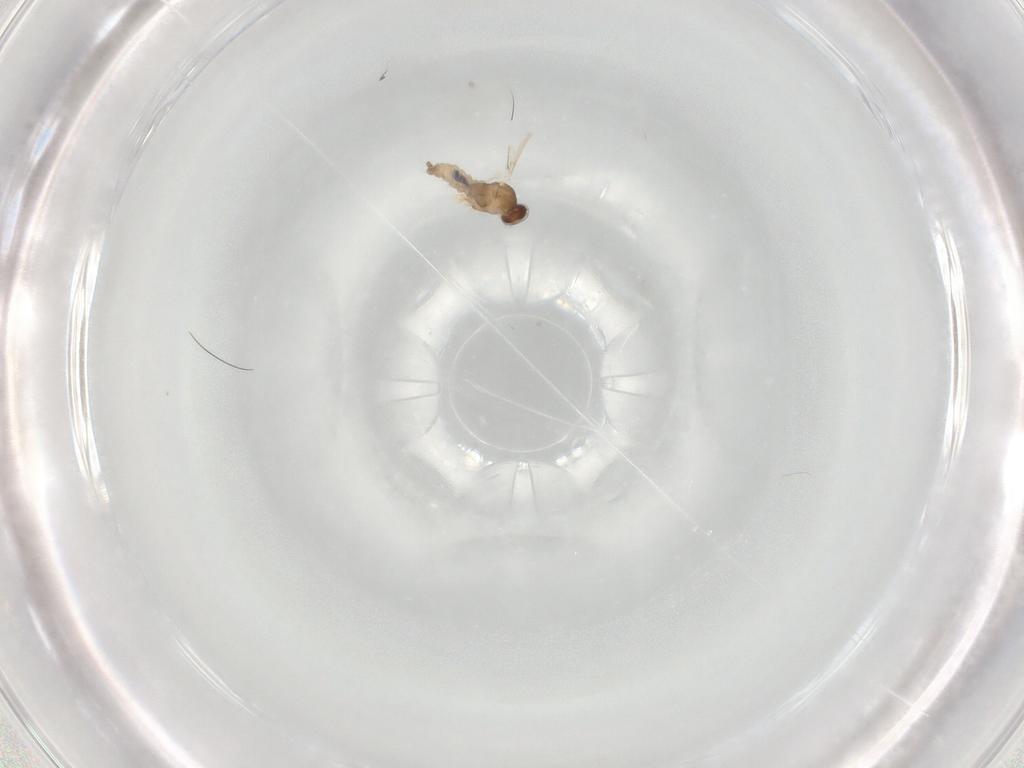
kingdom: Animalia
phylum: Arthropoda
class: Insecta
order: Diptera
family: Cecidomyiidae
